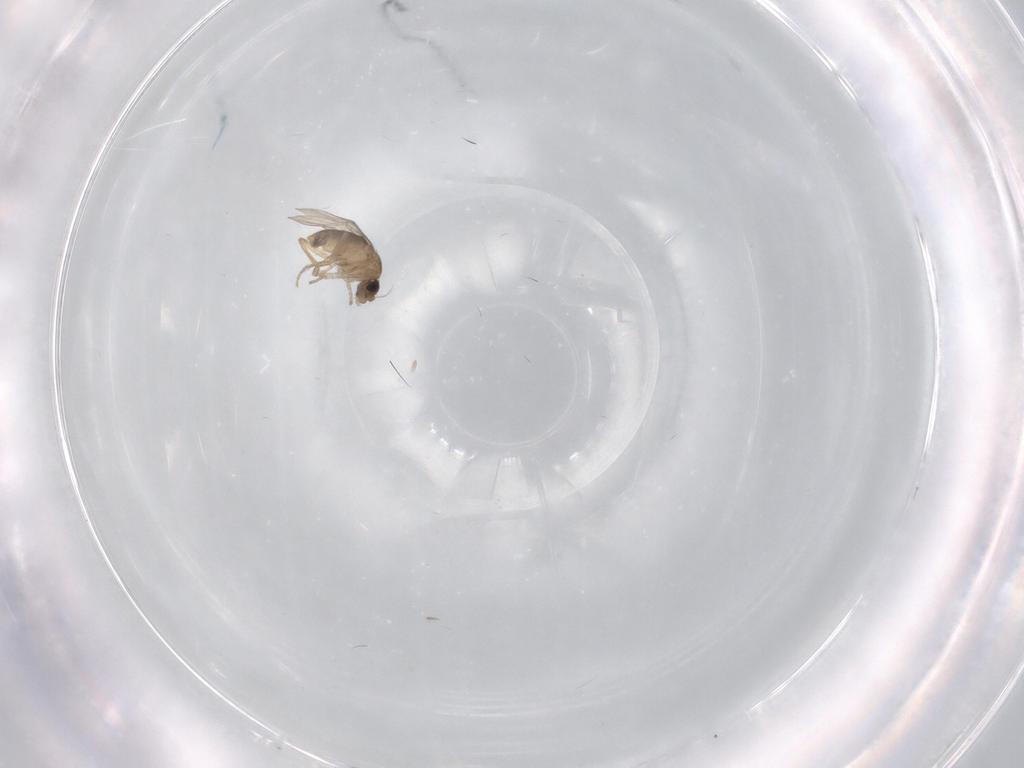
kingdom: Animalia
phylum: Arthropoda
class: Insecta
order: Diptera
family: Phoridae
